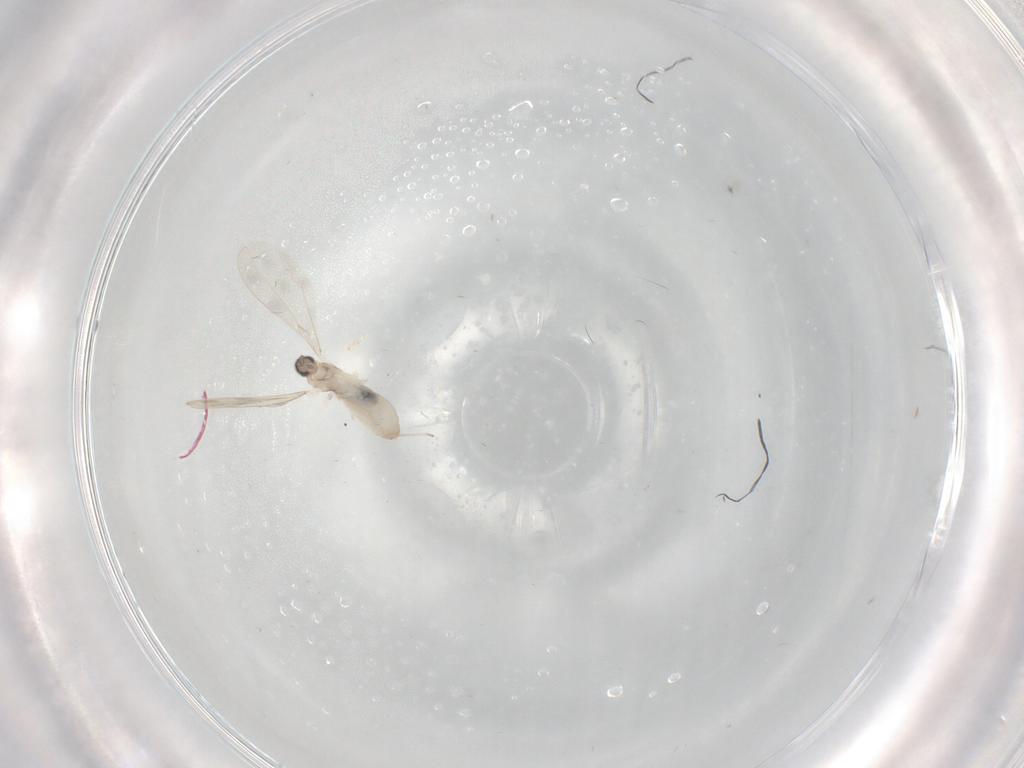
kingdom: Animalia
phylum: Arthropoda
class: Insecta
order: Diptera
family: Cecidomyiidae
